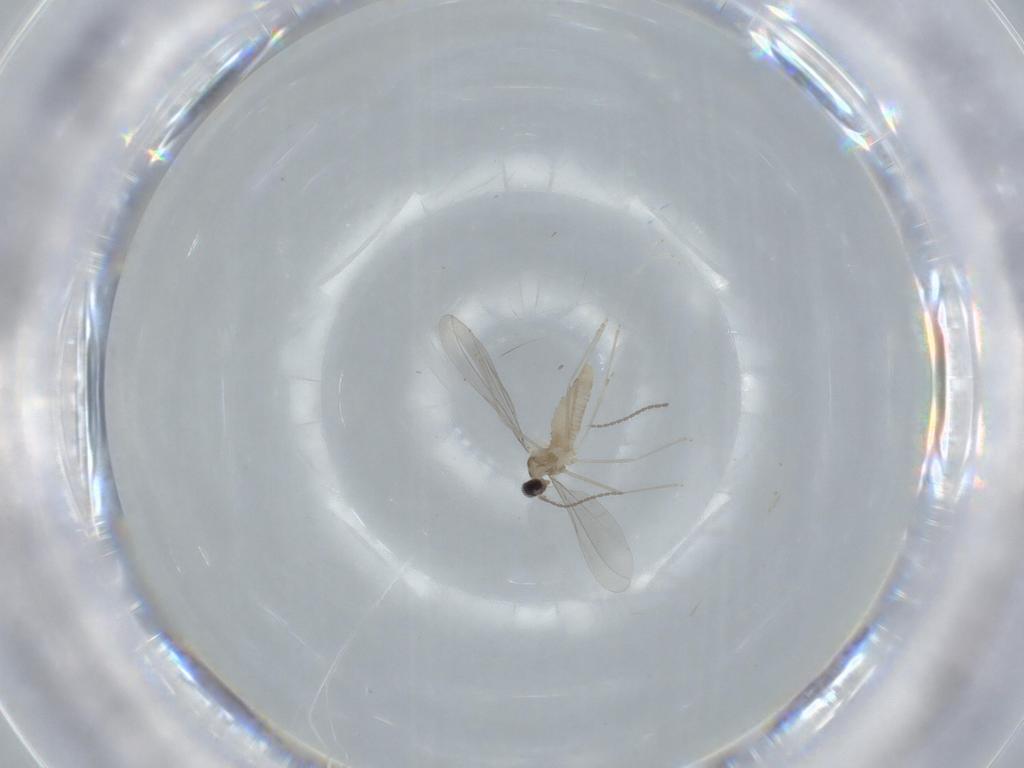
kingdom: Animalia
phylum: Arthropoda
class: Insecta
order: Diptera
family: Cecidomyiidae
